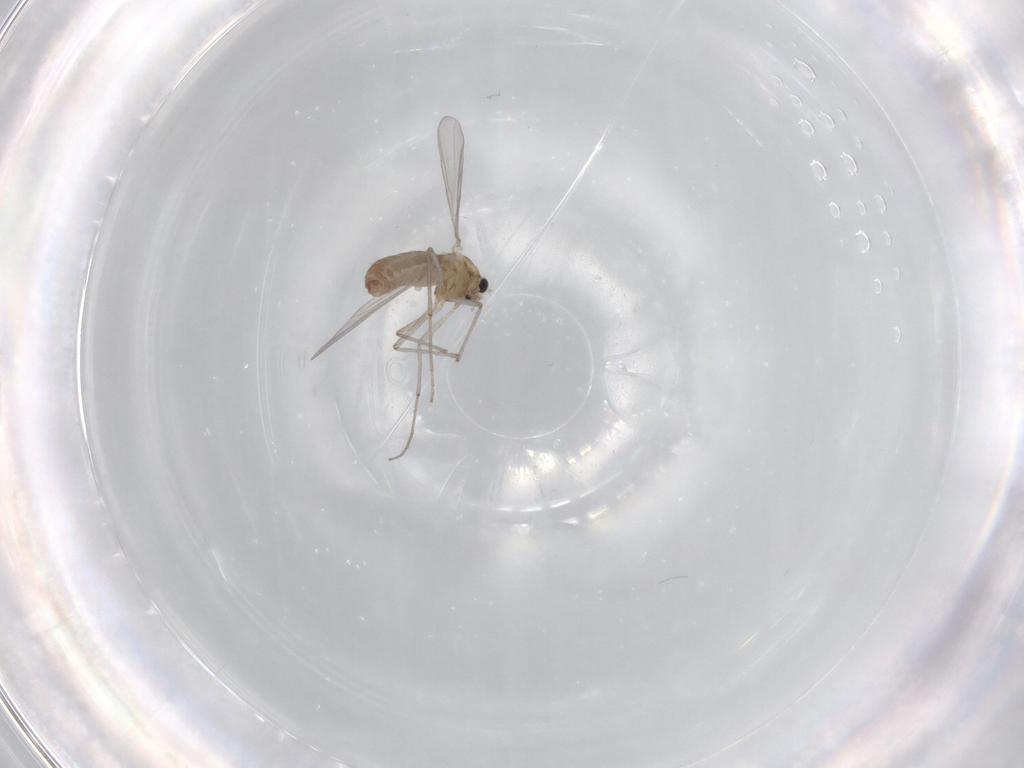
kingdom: Animalia
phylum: Arthropoda
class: Insecta
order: Diptera
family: Chironomidae
